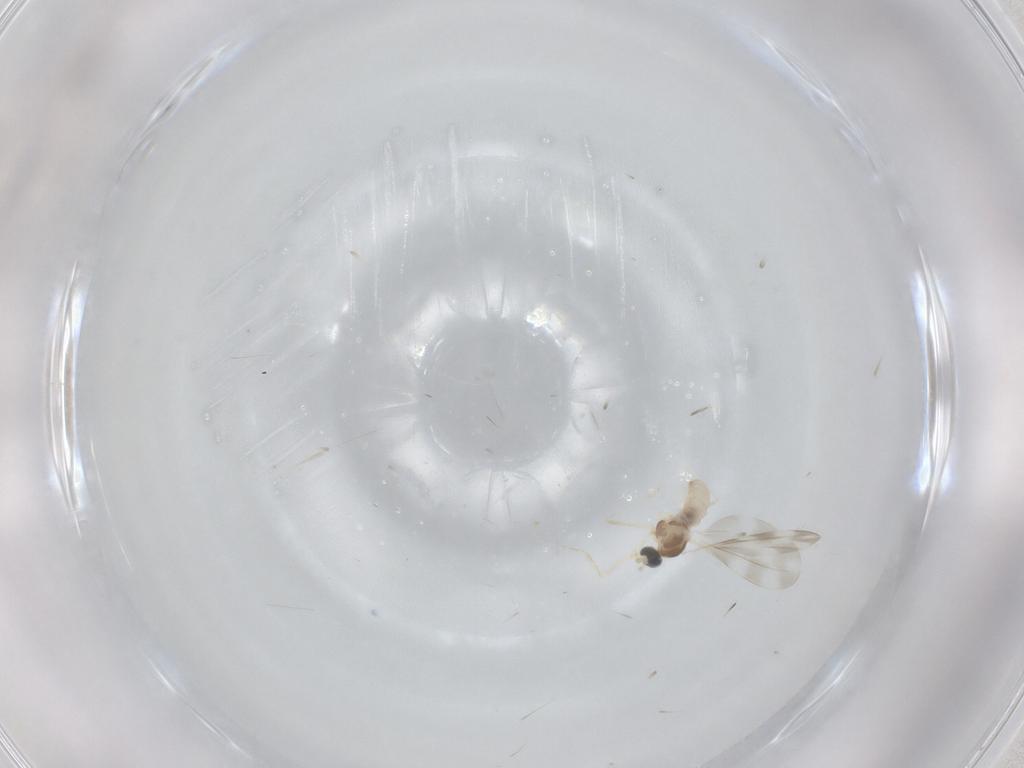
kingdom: Animalia
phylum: Arthropoda
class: Insecta
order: Diptera
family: Cecidomyiidae
